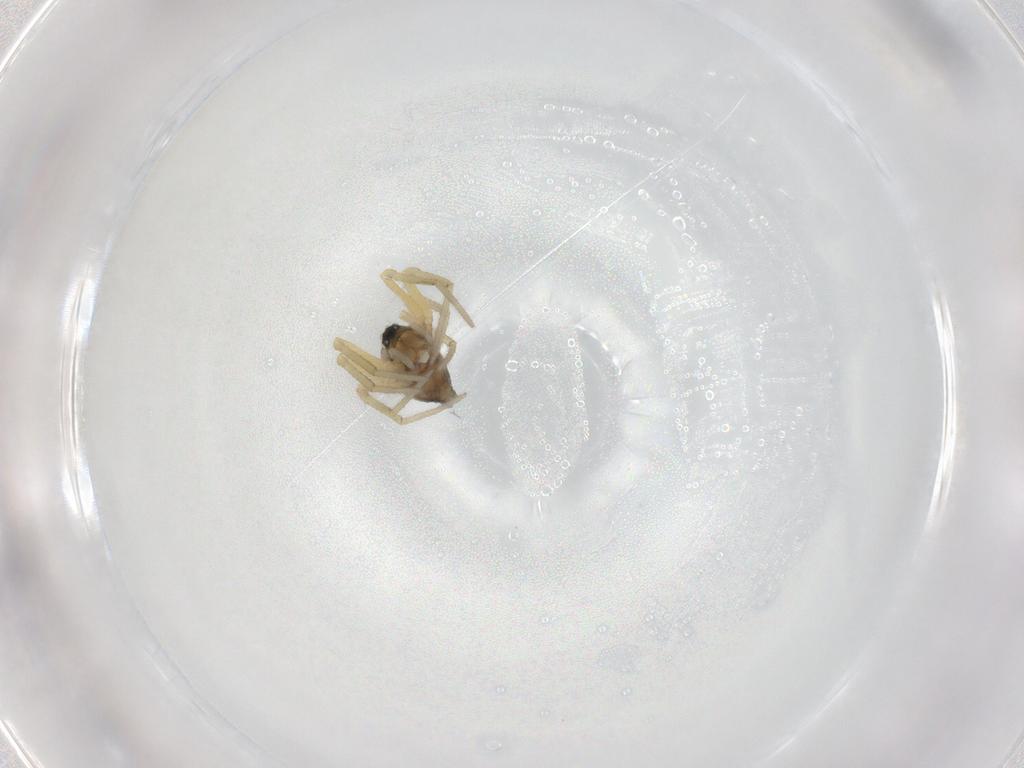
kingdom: Animalia
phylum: Arthropoda
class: Arachnida
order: Araneae
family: Linyphiidae
